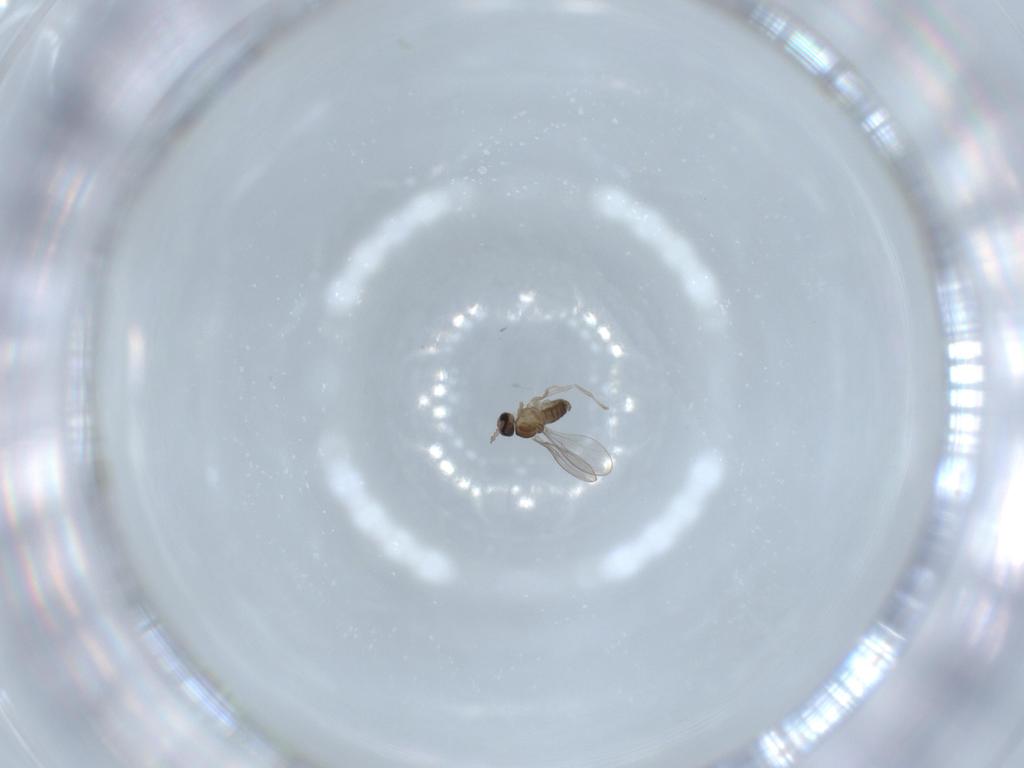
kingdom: Animalia
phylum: Arthropoda
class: Insecta
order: Diptera
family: Cecidomyiidae
